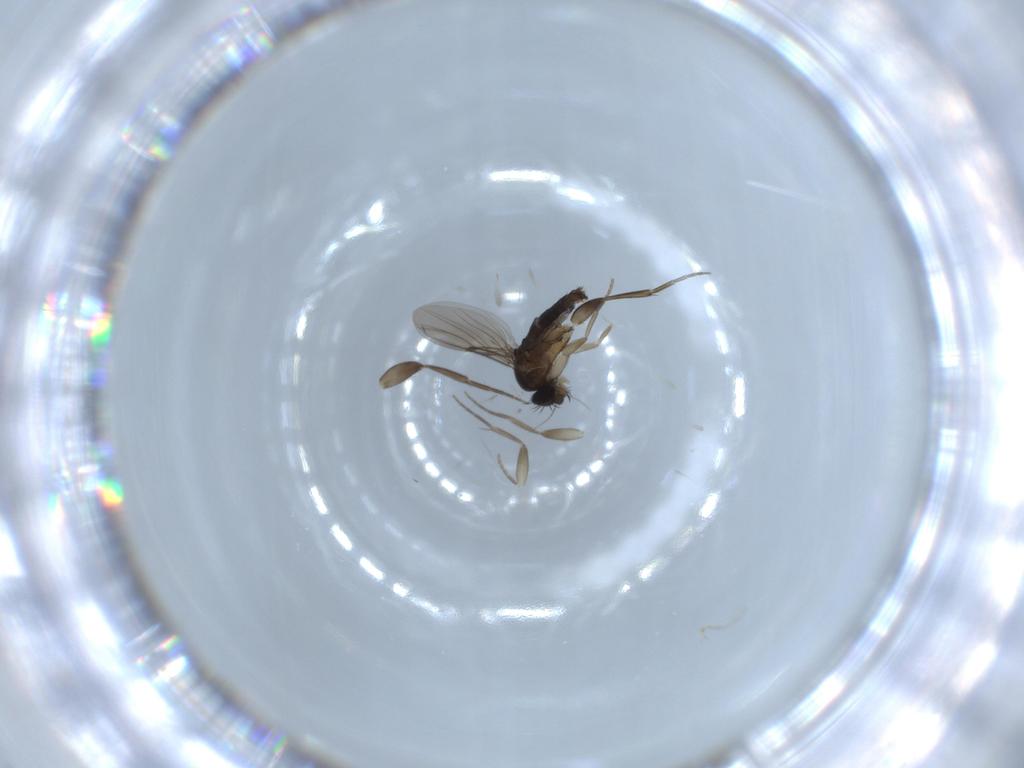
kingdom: Animalia
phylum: Arthropoda
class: Insecta
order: Diptera
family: Phoridae
